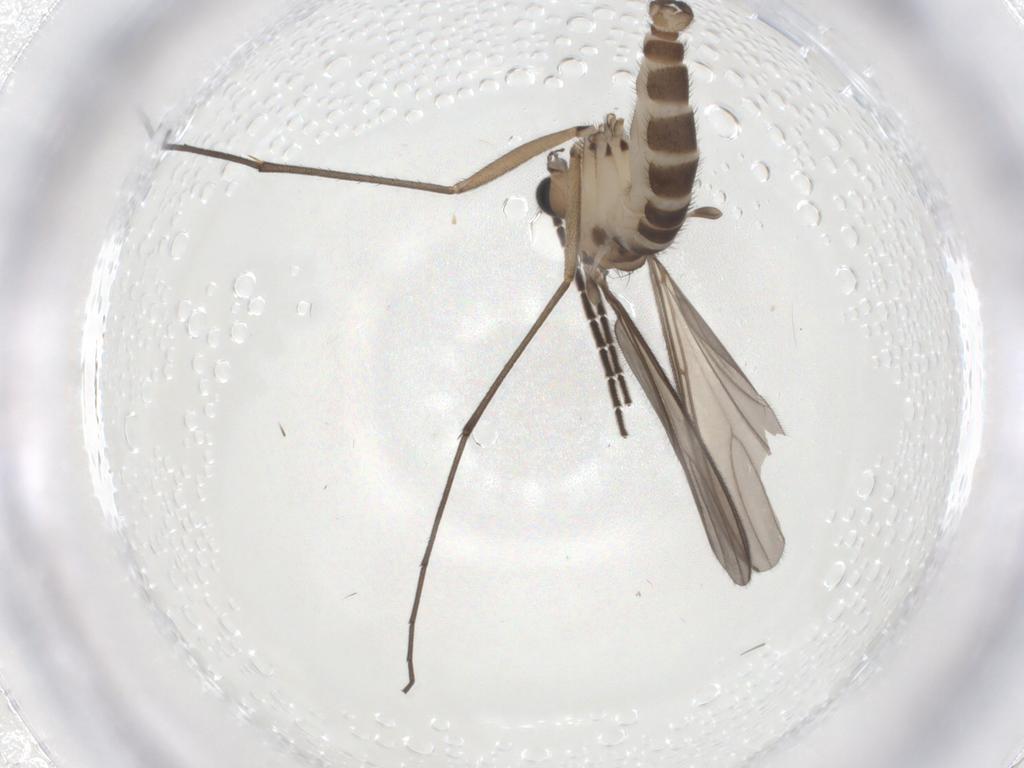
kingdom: Animalia
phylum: Arthropoda
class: Insecta
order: Diptera
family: Sciaridae
